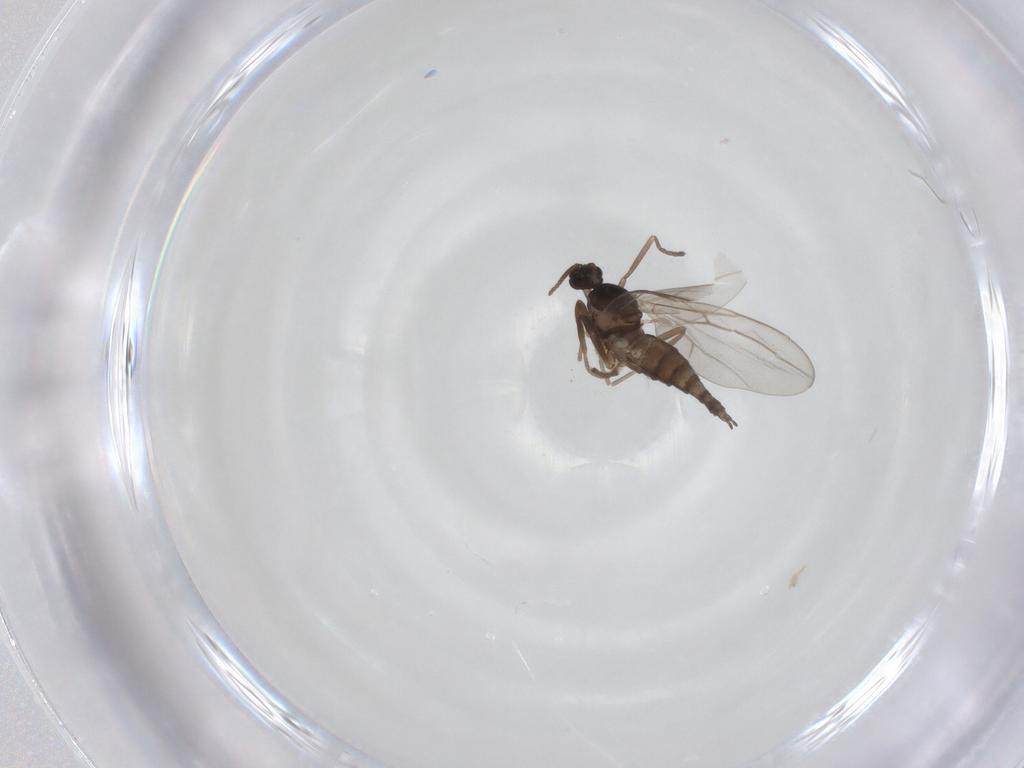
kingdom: Animalia
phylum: Arthropoda
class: Insecta
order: Diptera
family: Cecidomyiidae
